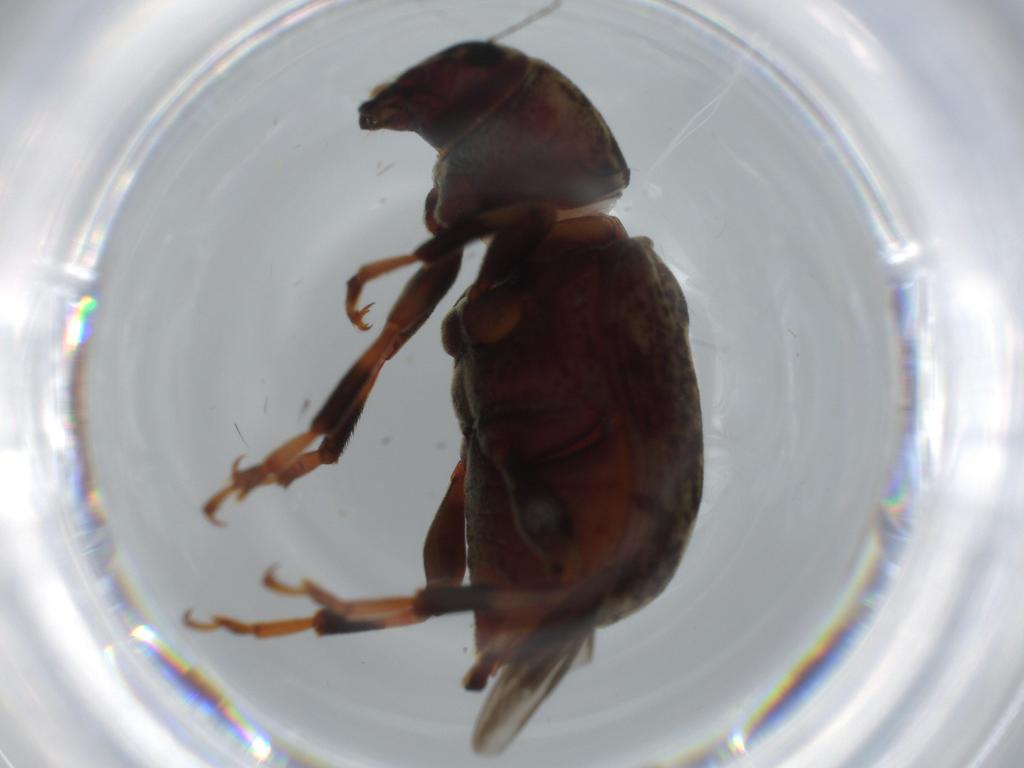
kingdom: Animalia
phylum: Arthropoda
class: Insecta
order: Coleoptera
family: Anthribidae
